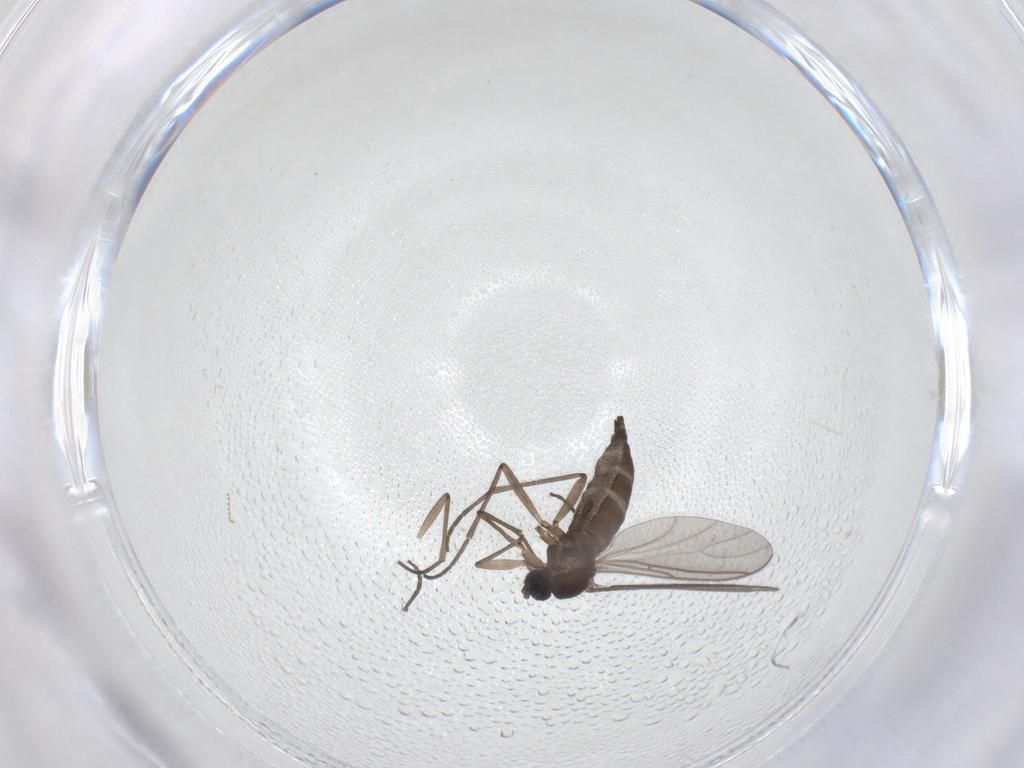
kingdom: Animalia
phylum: Arthropoda
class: Insecta
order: Diptera
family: Sciaridae
